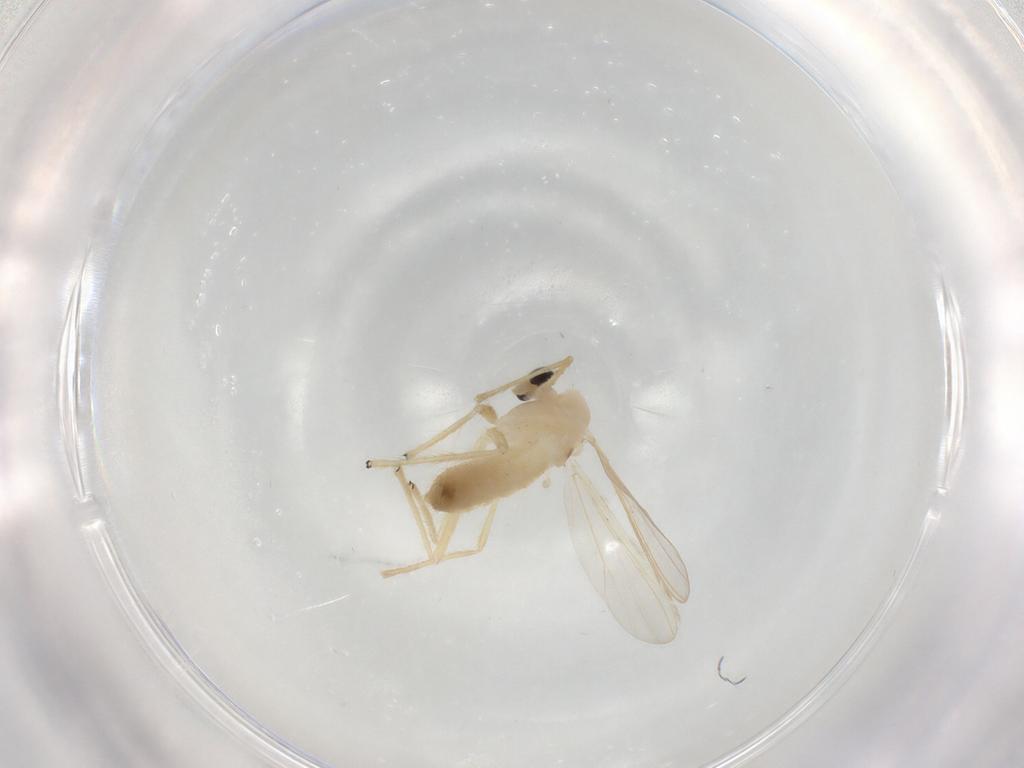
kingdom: Animalia
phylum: Arthropoda
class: Insecta
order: Diptera
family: Chironomidae
